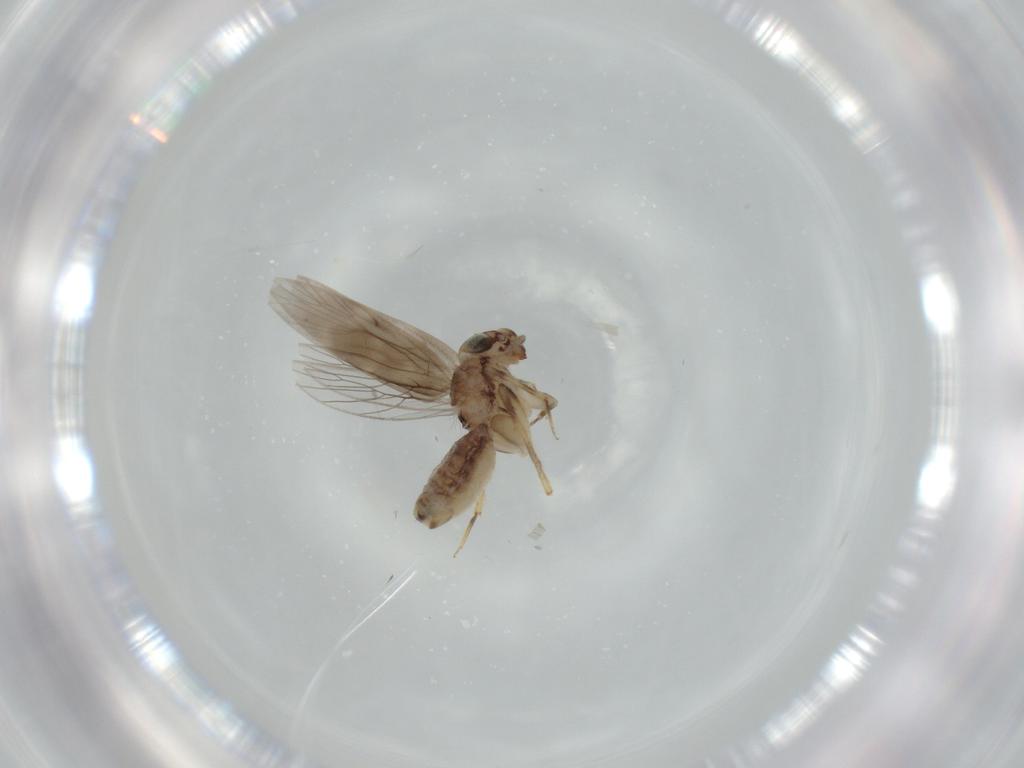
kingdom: Animalia
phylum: Arthropoda
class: Insecta
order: Psocodea
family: Lepidopsocidae
